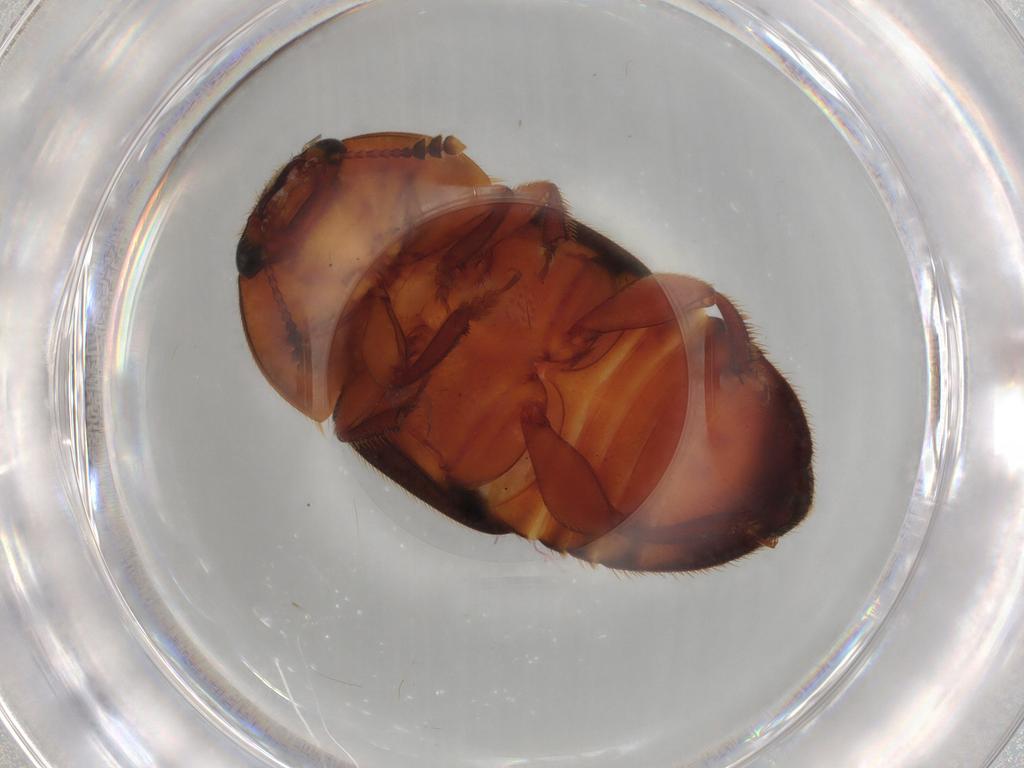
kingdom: Animalia
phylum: Arthropoda
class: Insecta
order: Coleoptera
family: Nitidulidae
